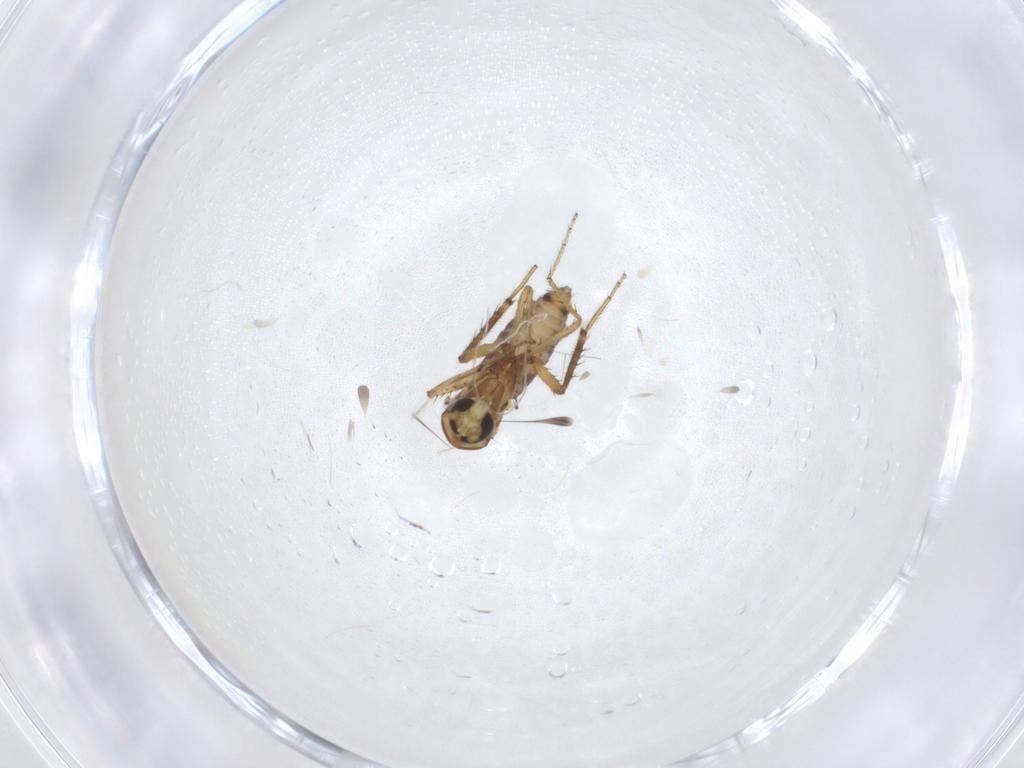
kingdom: Animalia
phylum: Arthropoda
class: Insecta
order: Diptera
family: Ceratopogonidae
